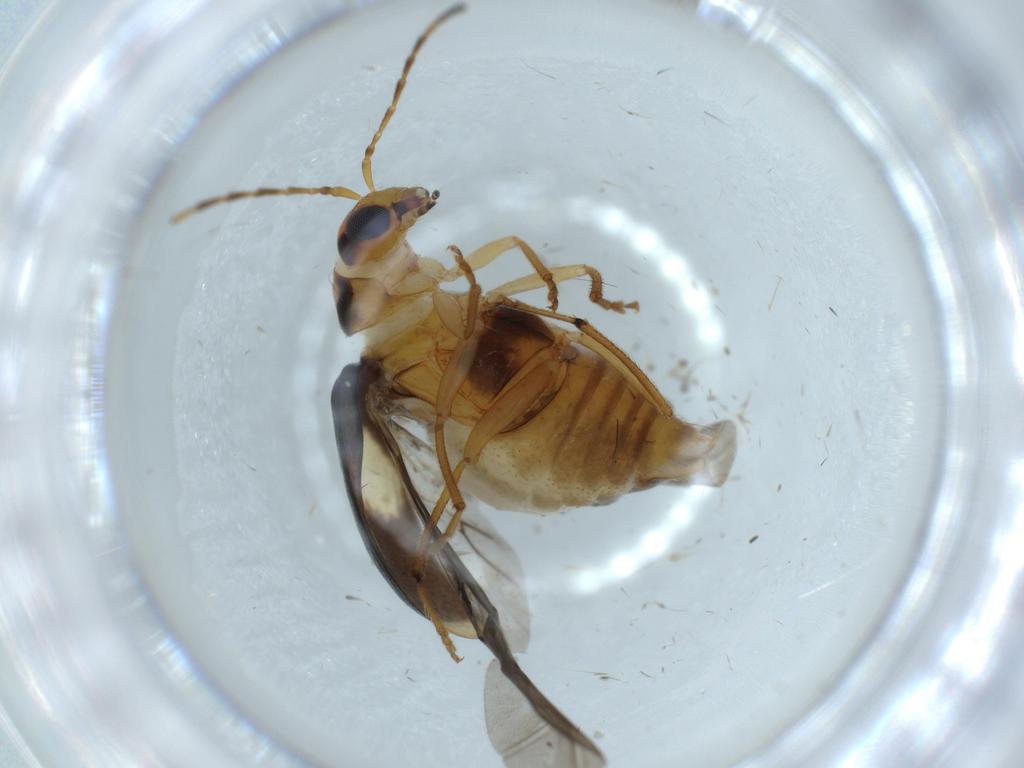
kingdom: Animalia
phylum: Arthropoda
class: Insecta
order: Coleoptera
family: Chrysomelidae
